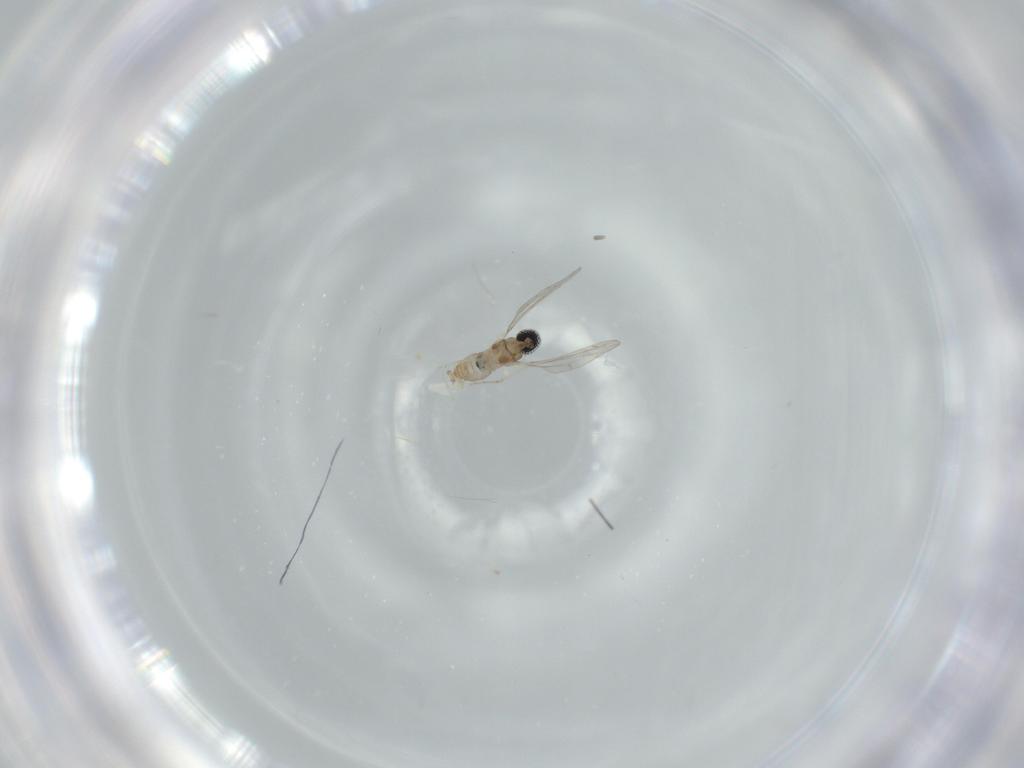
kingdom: Animalia
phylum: Arthropoda
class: Insecta
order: Diptera
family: Cecidomyiidae
